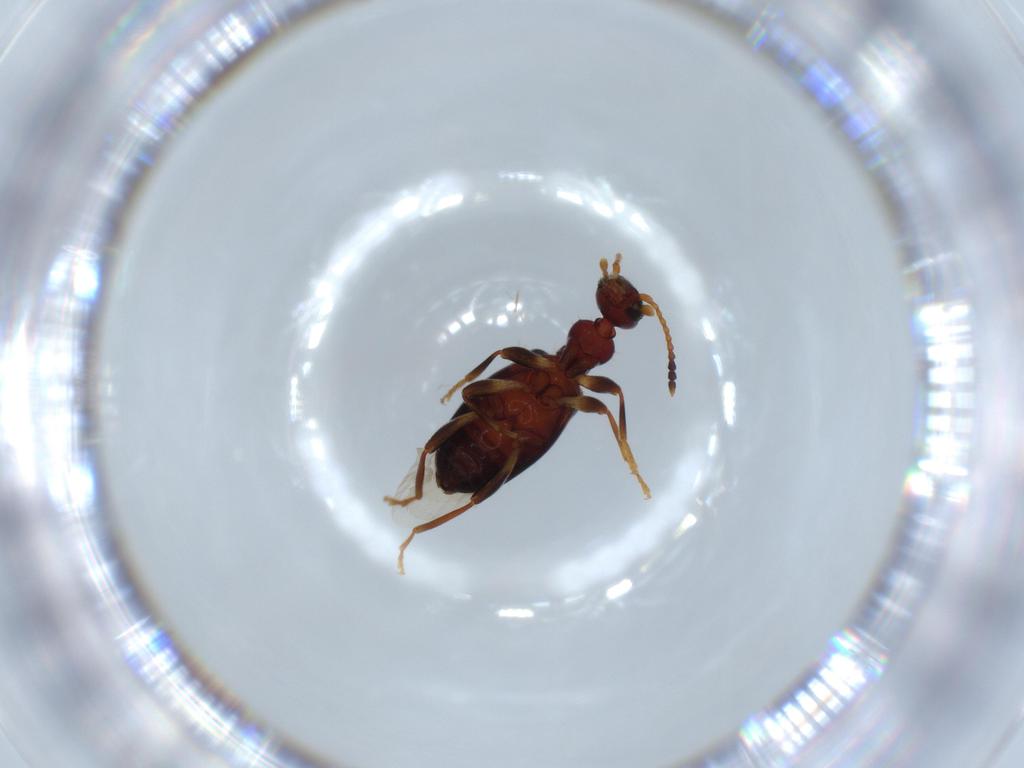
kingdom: Animalia
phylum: Arthropoda
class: Insecta
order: Coleoptera
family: Anthicidae
